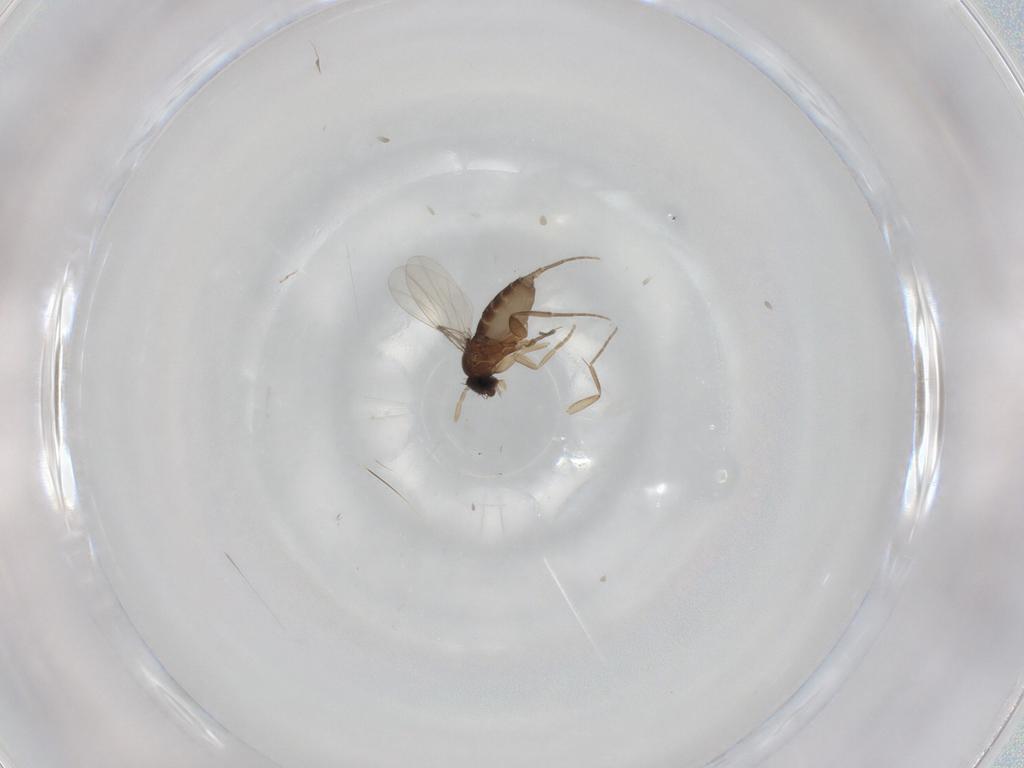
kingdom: Animalia
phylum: Arthropoda
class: Insecta
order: Diptera
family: Phoridae
